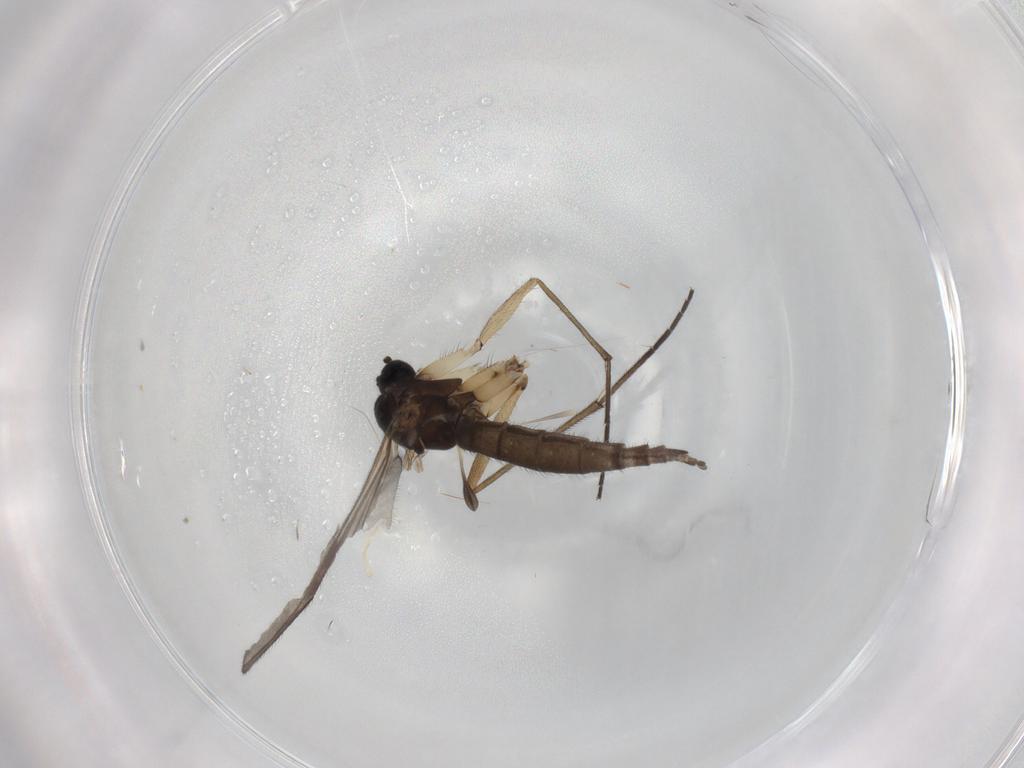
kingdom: Animalia
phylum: Arthropoda
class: Insecta
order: Diptera
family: Sciaridae
